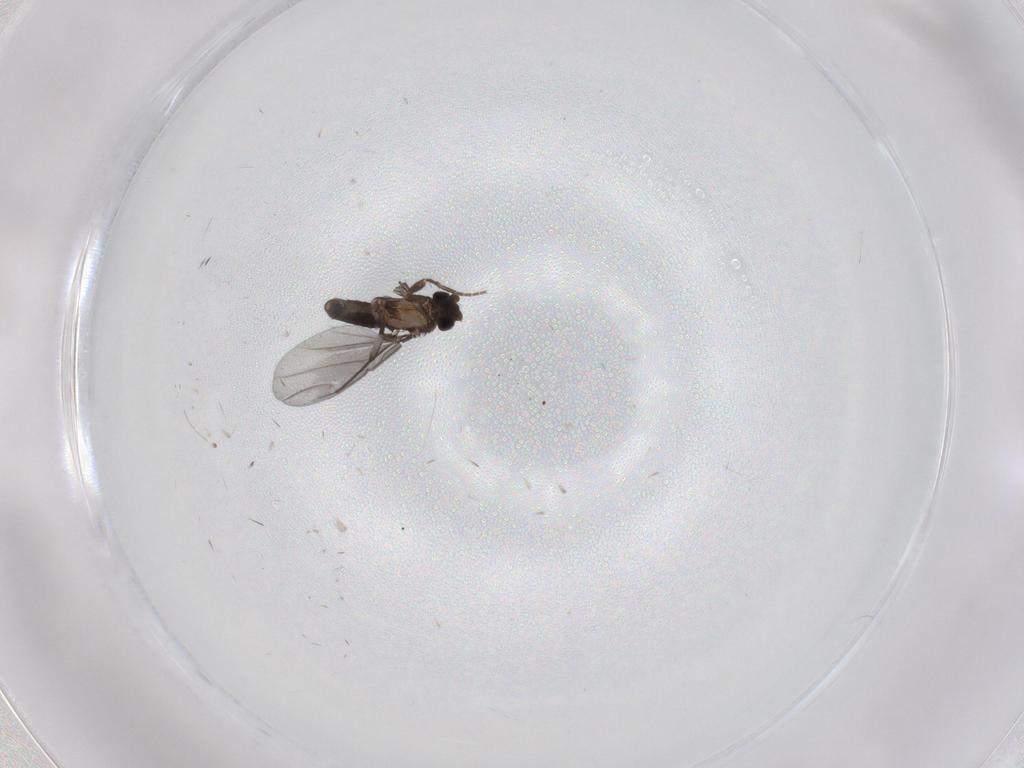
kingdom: Animalia
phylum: Arthropoda
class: Insecta
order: Diptera
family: Phoridae
